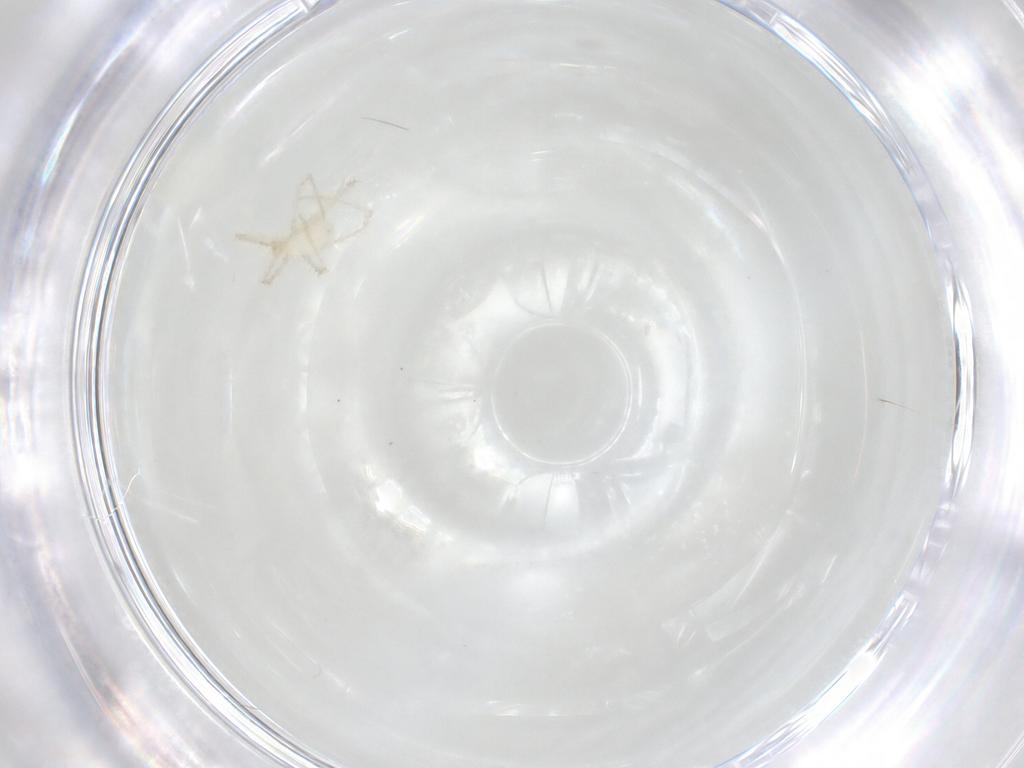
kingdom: Animalia
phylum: Arthropoda
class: Insecta
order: Hemiptera
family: Aphididae
